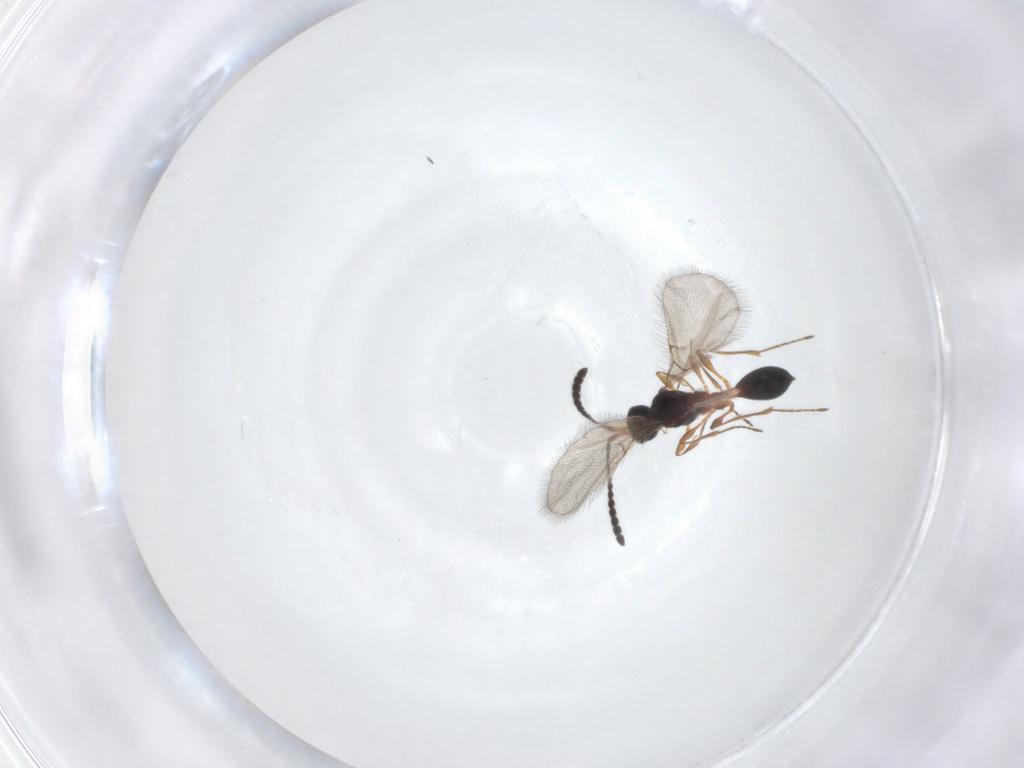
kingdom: Animalia
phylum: Arthropoda
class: Insecta
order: Hymenoptera
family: Diapriidae
